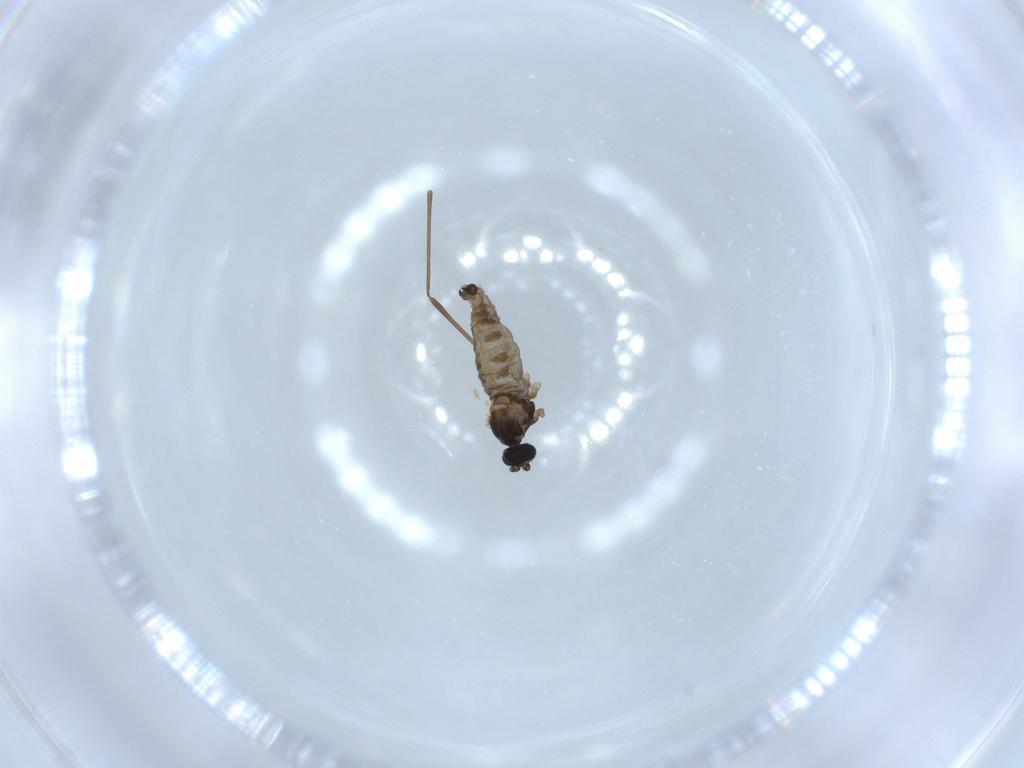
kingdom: Animalia
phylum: Arthropoda
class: Insecta
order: Diptera
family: Cecidomyiidae
